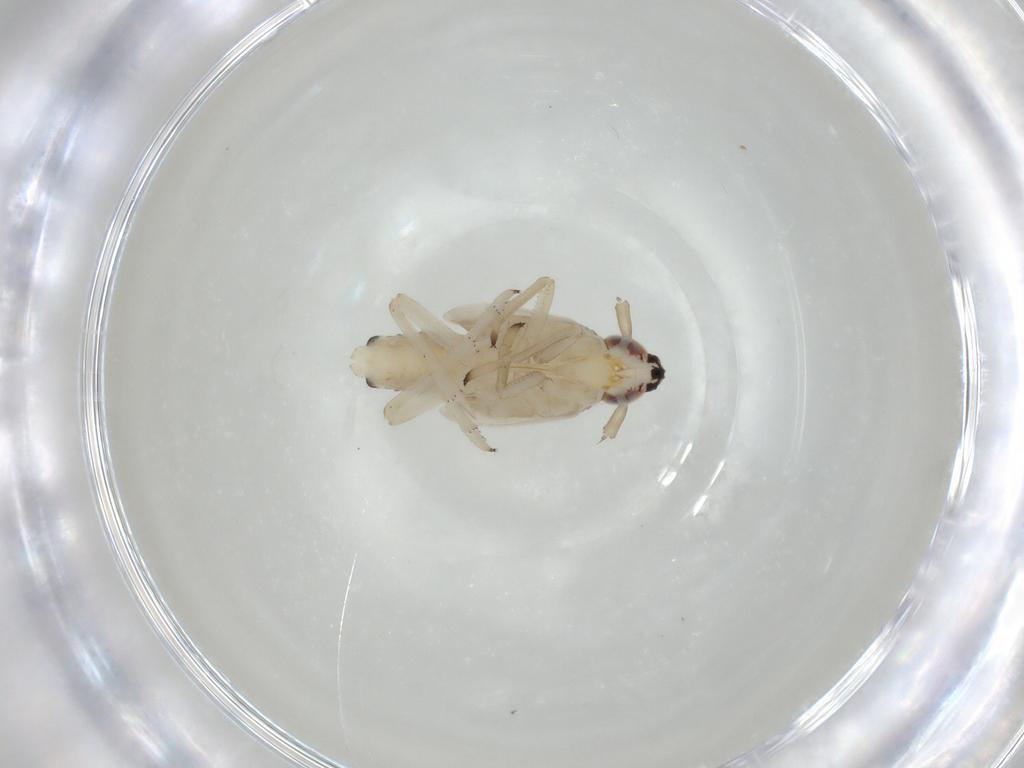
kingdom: Animalia
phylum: Arthropoda
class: Insecta
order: Hemiptera
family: Delphacidae
